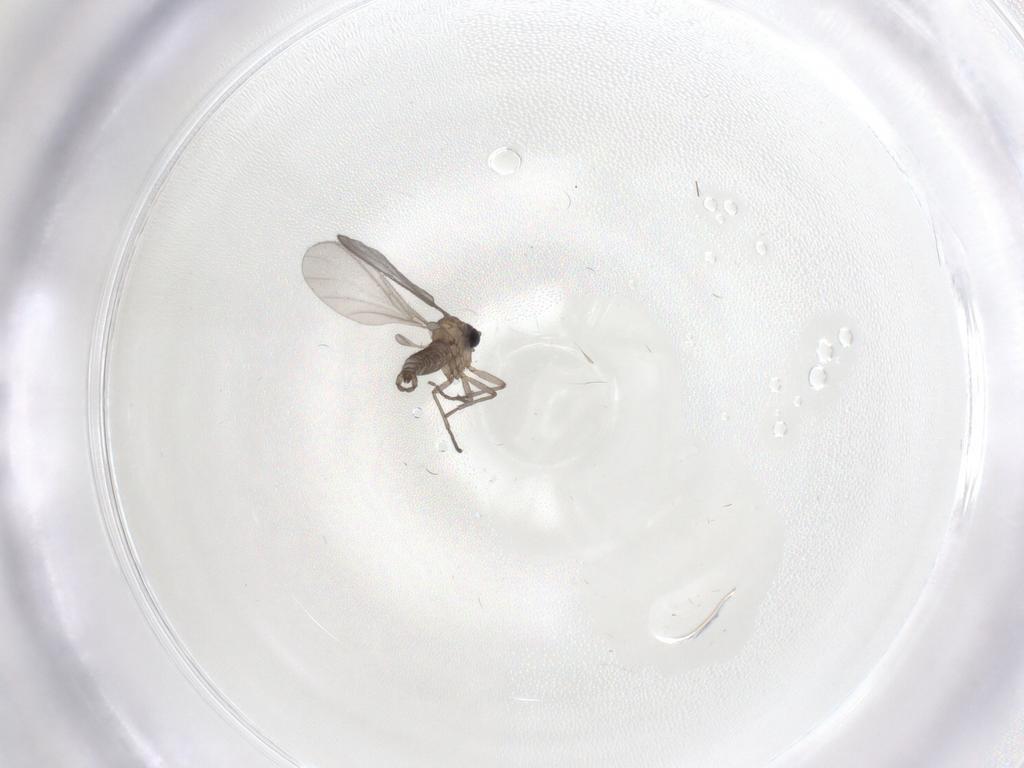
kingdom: Animalia
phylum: Arthropoda
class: Insecta
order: Diptera
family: Sciaridae
